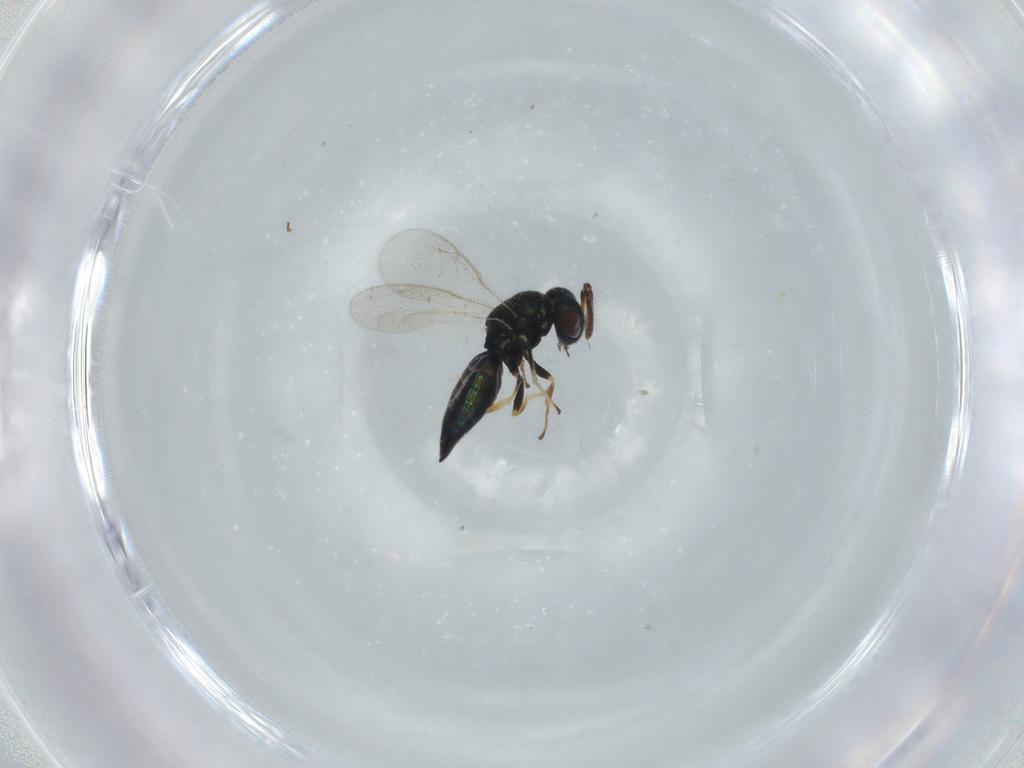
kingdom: Animalia
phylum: Arthropoda
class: Insecta
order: Hymenoptera
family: Pteromalidae
